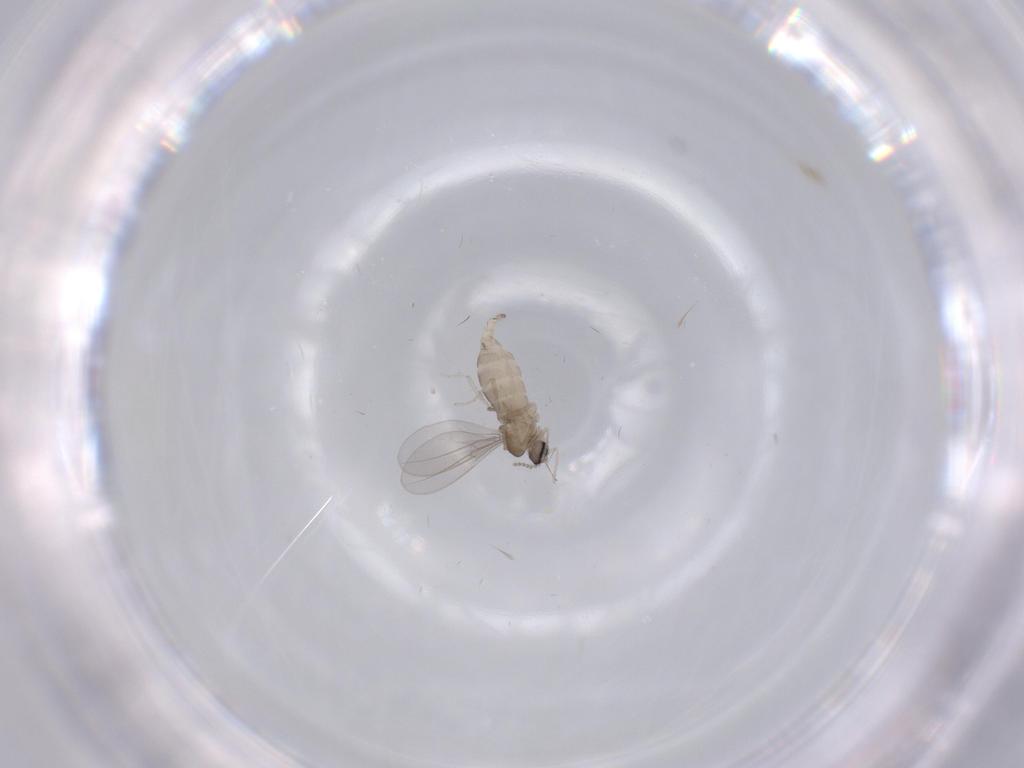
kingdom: Animalia
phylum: Arthropoda
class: Insecta
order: Diptera
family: Cecidomyiidae
